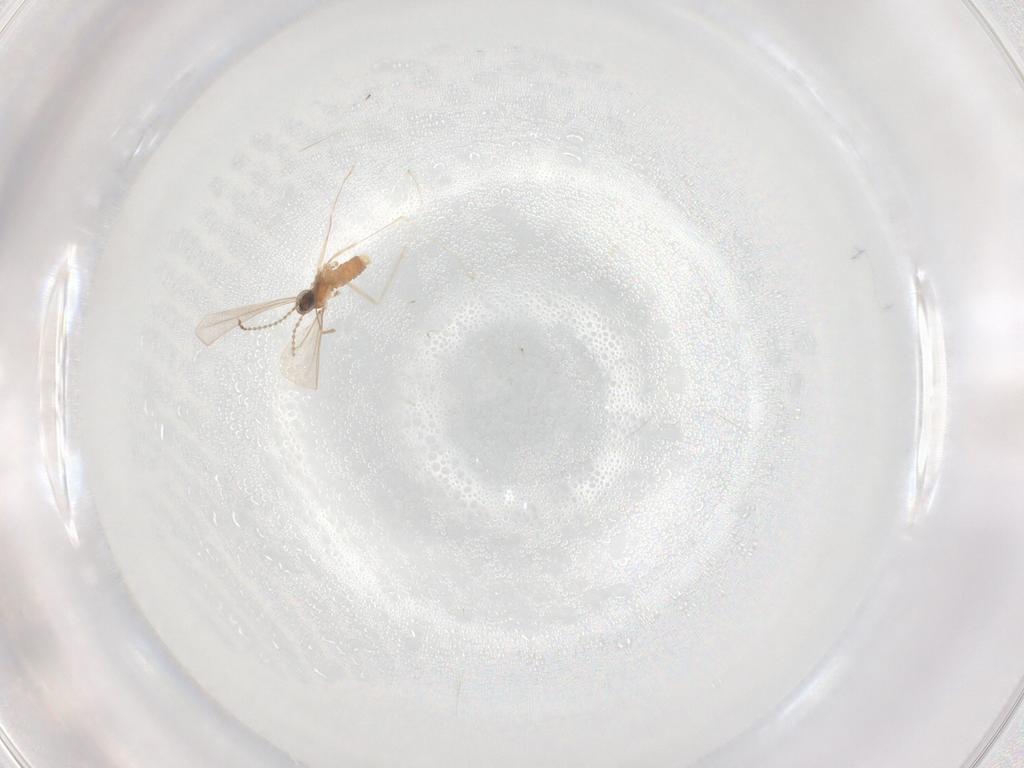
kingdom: Animalia
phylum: Arthropoda
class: Insecta
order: Diptera
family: Cecidomyiidae
